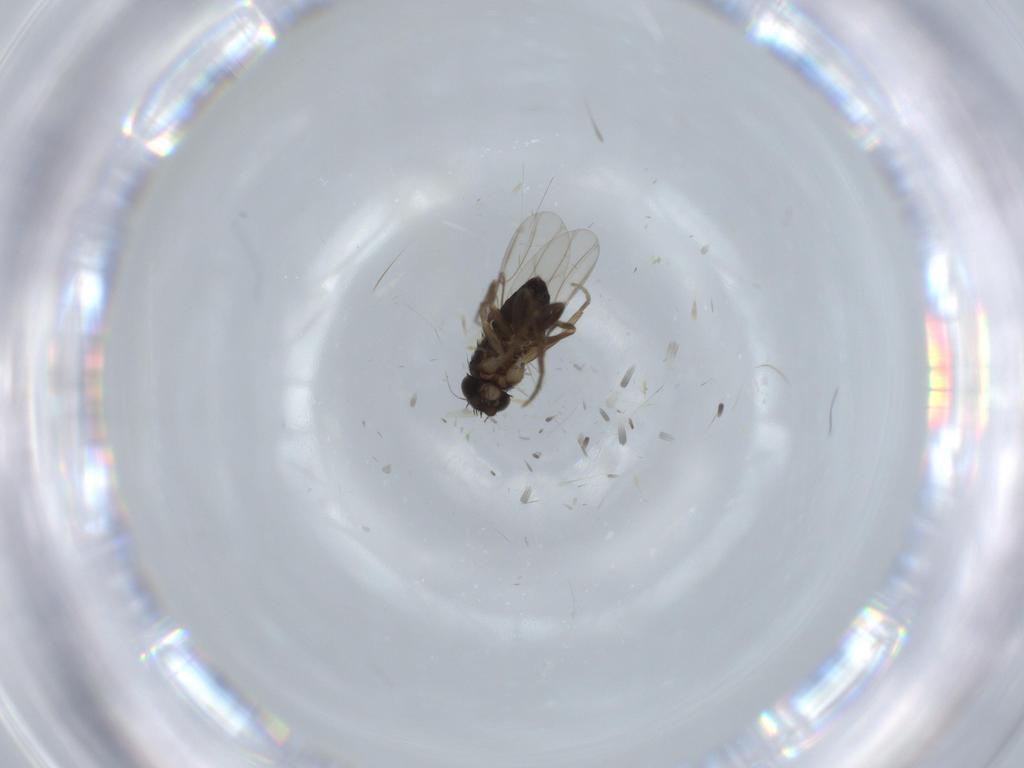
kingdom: Animalia
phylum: Arthropoda
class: Insecta
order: Diptera
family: Phoridae
